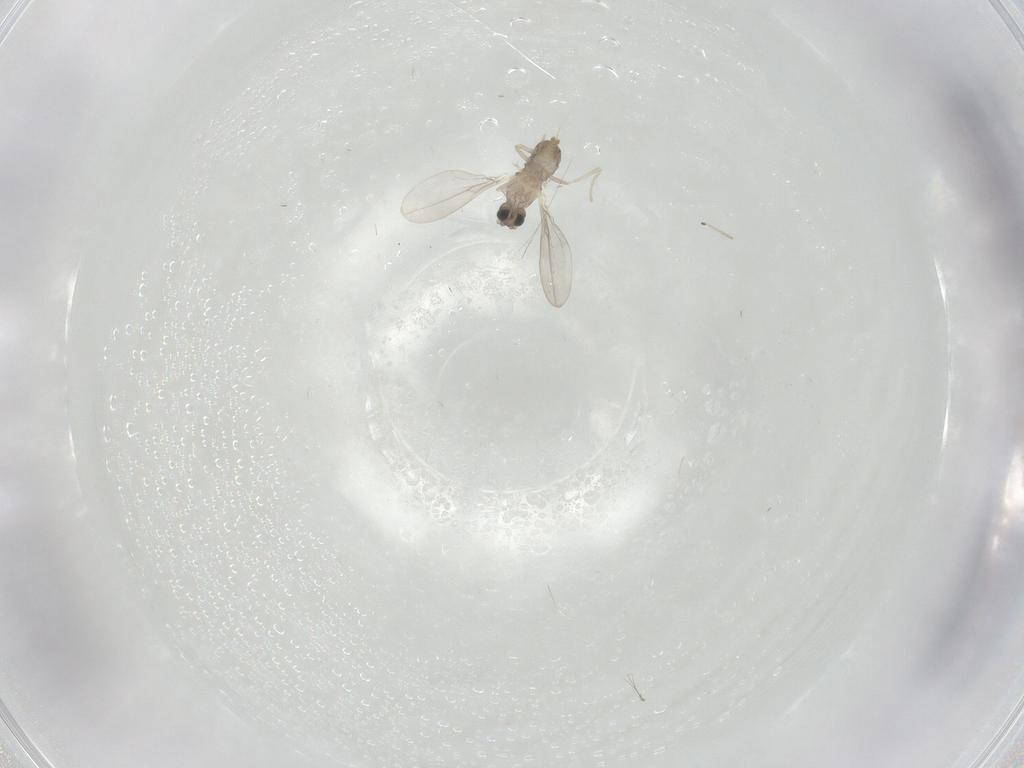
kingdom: Animalia
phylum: Arthropoda
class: Insecta
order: Diptera
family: Cecidomyiidae
